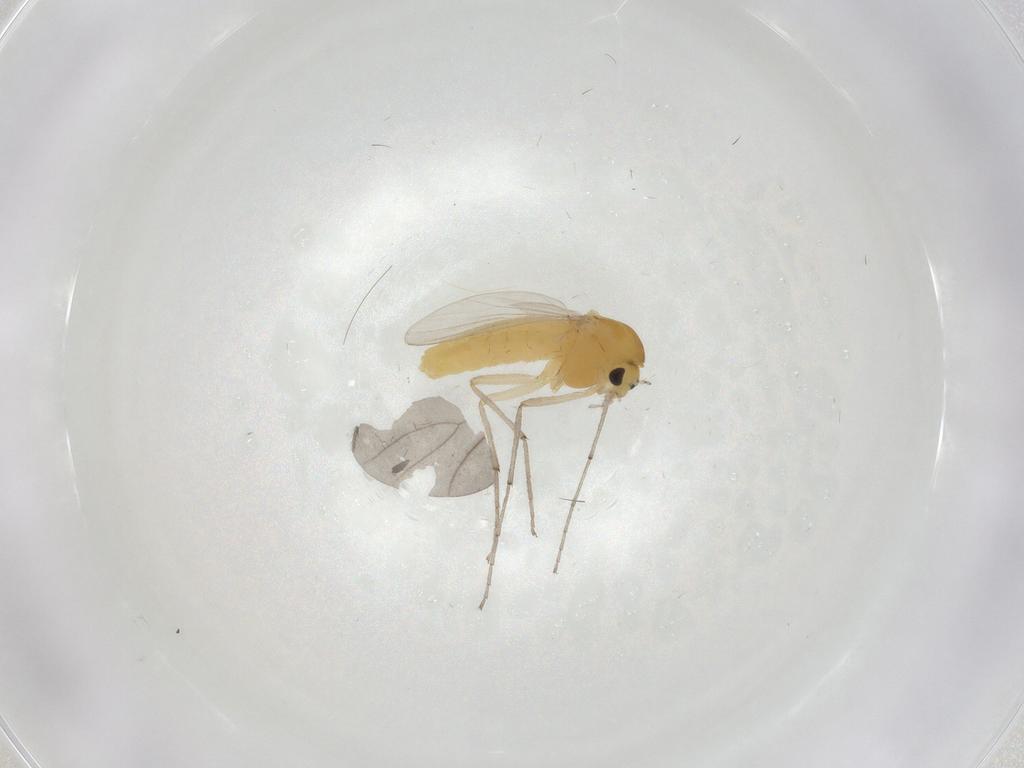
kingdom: Animalia
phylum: Arthropoda
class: Insecta
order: Diptera
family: Chironomidae
